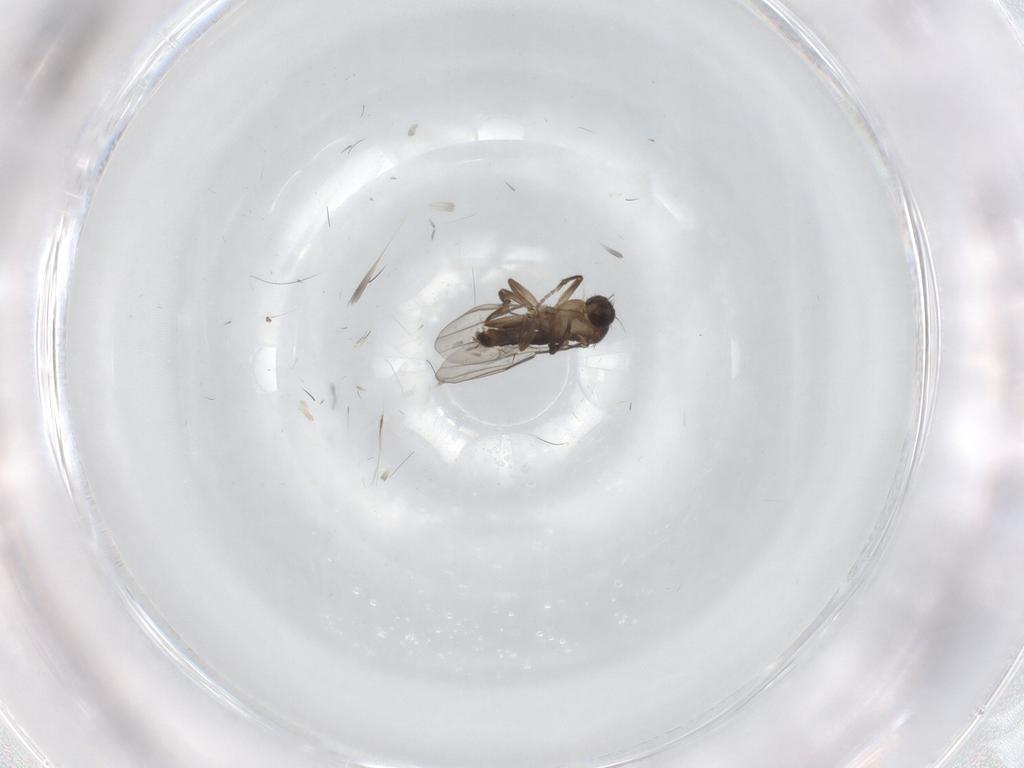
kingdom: Animalia
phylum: Arthropoda
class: Insecta
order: Diptera
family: Phoridae
